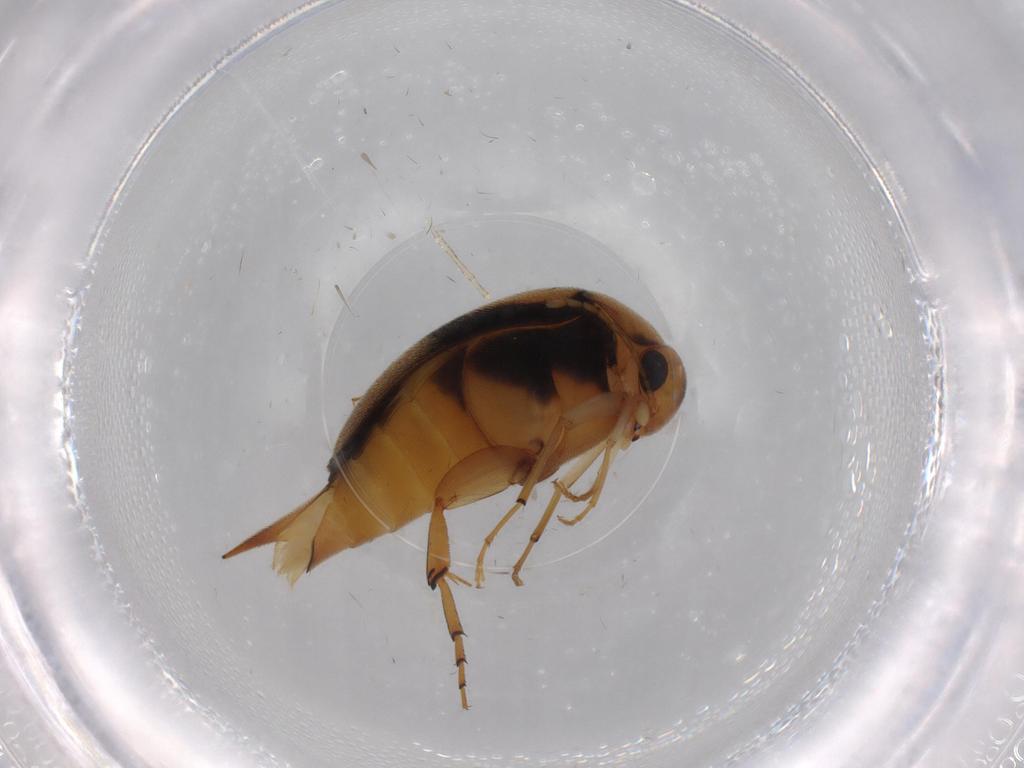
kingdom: Animalia
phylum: Arthropoda
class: Insecta
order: Coleoptera
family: Mordellidae
